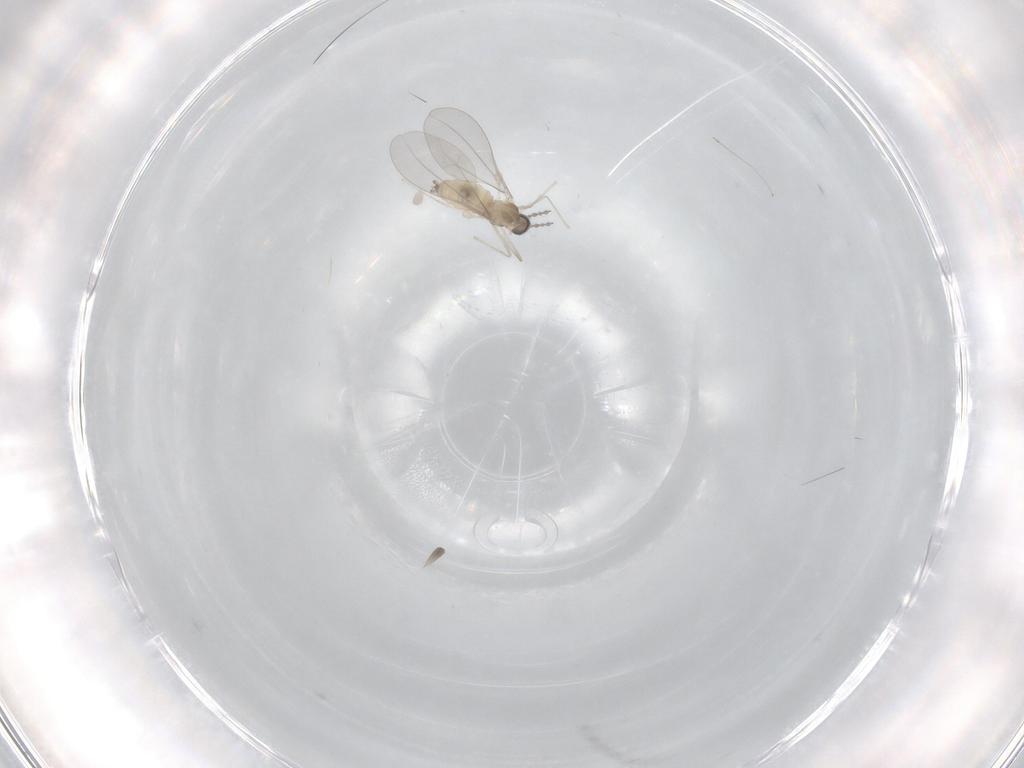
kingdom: Animalia
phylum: Arthropoda
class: Insecta
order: Diptera
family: Chironomidae
